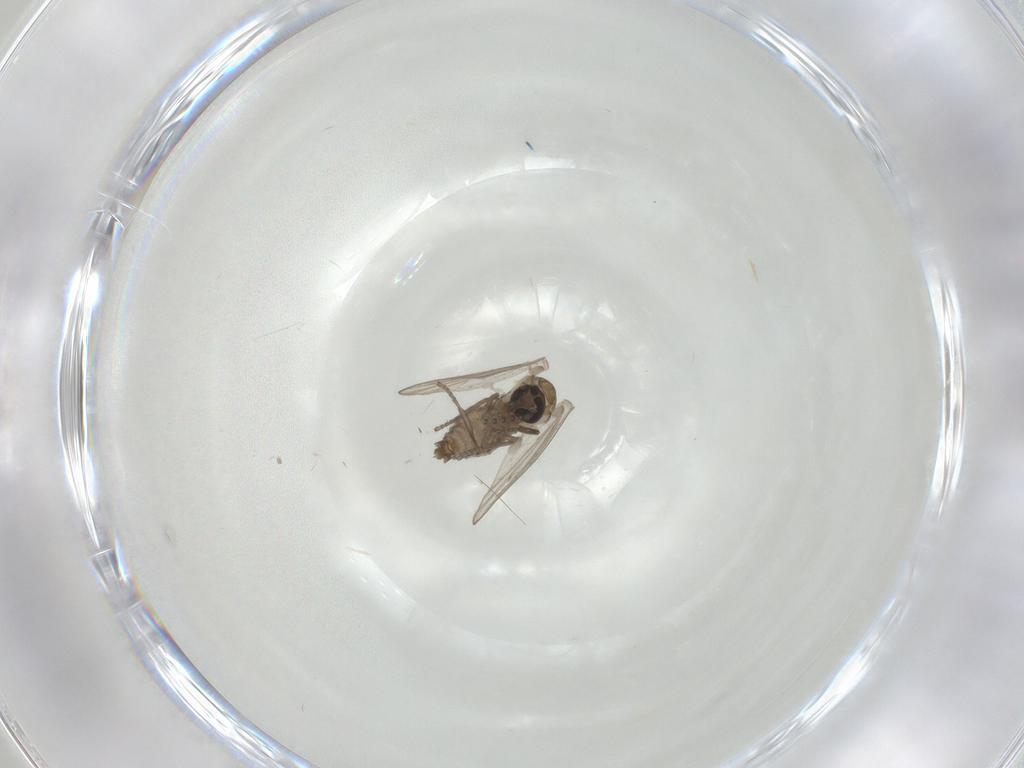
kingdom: Animalia
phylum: Arthropoda
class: Insecta
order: Diptera
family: Psychodidae
